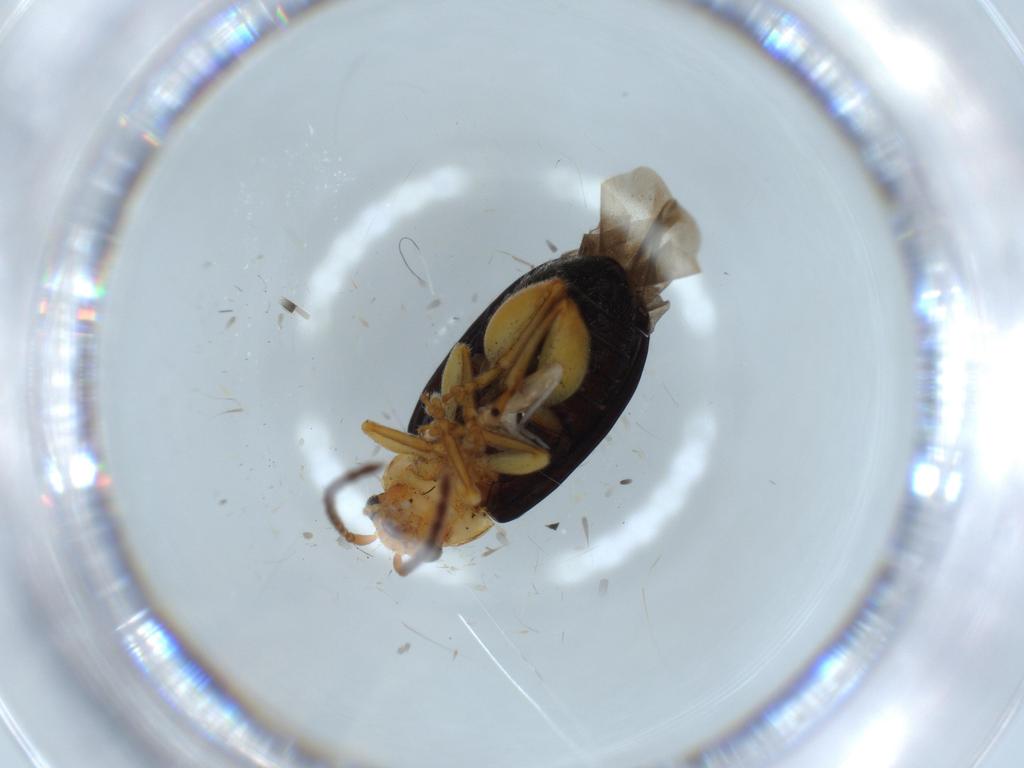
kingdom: Animalia
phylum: Arthropoda
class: Insecta
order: Coleoptera
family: Chrysomelidae
